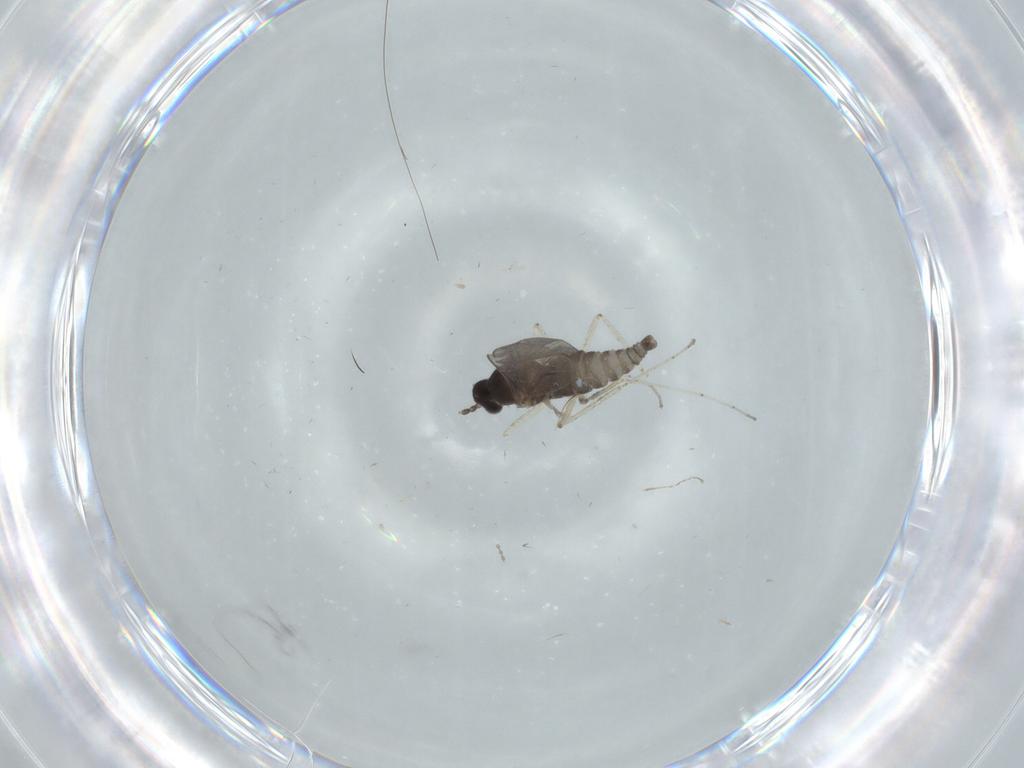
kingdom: Animalia
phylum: Arthropoda
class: Insecta
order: Diptera
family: Cecidomyiidae
